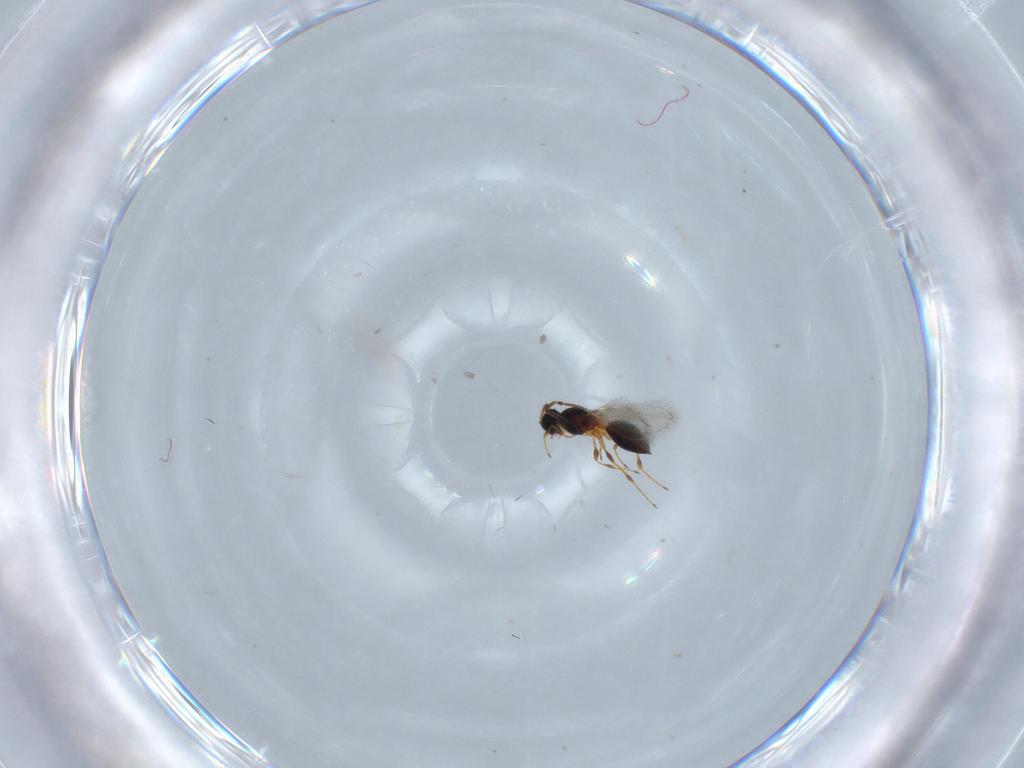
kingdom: Animalia
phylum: Arthropoda
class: Insecta
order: Hymenoptera
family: Diapriidae
